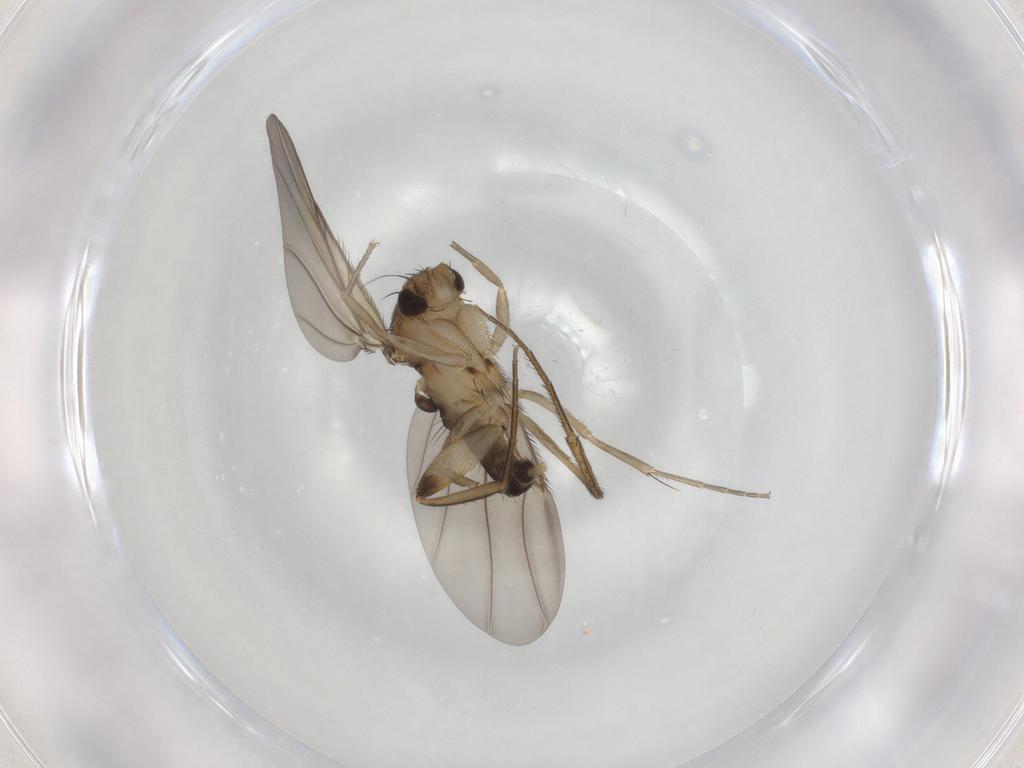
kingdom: Animalia
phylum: Arthropoda
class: Insecta
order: Diptera
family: Phoridae
